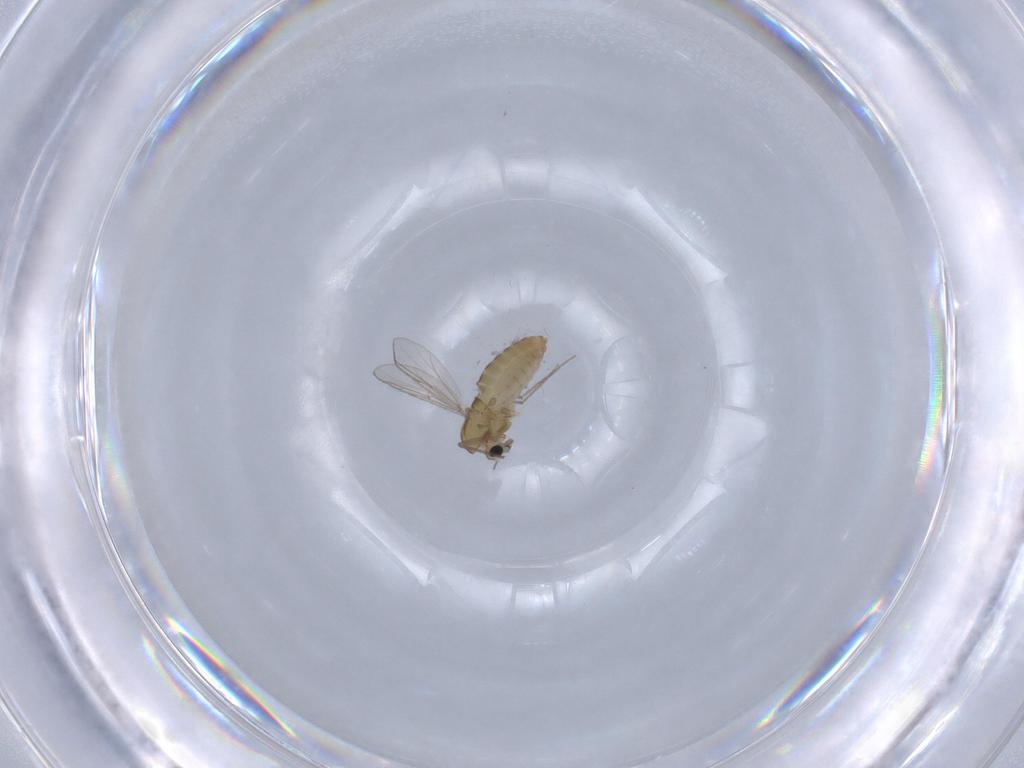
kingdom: Animalia
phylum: Arthropoda
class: Insecta
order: Diptera
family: Chironomidae
